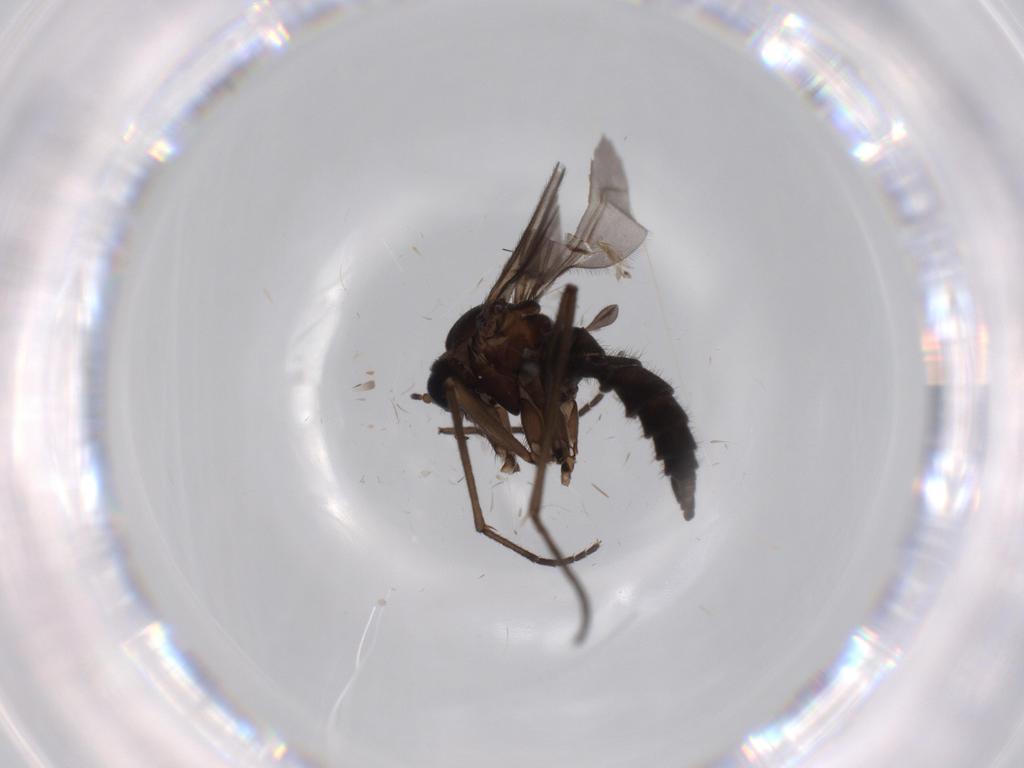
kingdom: Animalia
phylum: Arthropoda
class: Insecta
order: Diptera
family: Sciaridae
